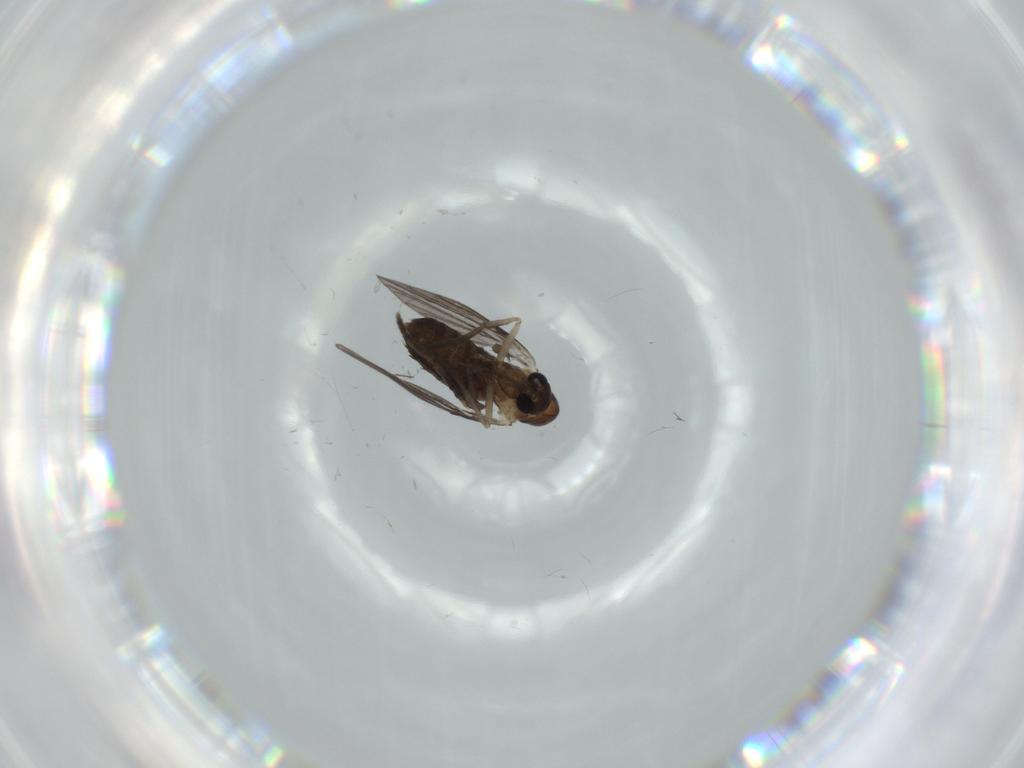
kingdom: Animalia
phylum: Arthropoda
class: Insecta
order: Diptera
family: Psychodidae
